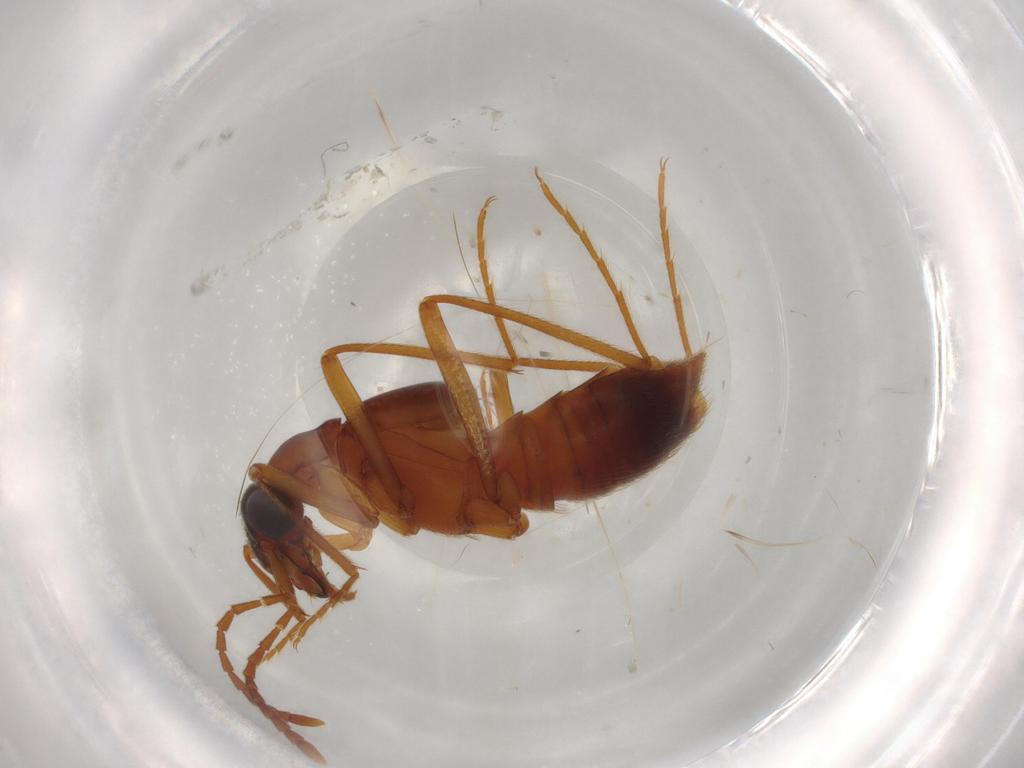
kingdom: Animalia
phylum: Arthropoda
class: Insecta
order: Coleoptera
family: Staphylinidae
